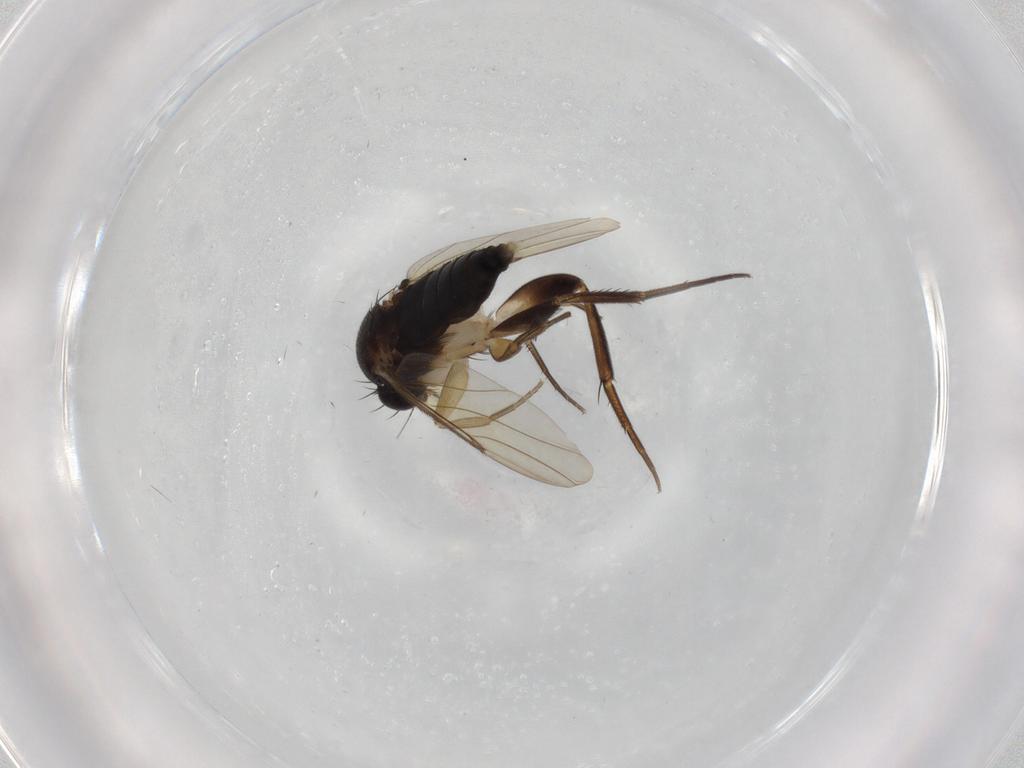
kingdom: Animalia
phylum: Arthropoda
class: Insecta
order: Diptera
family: Phoridae
